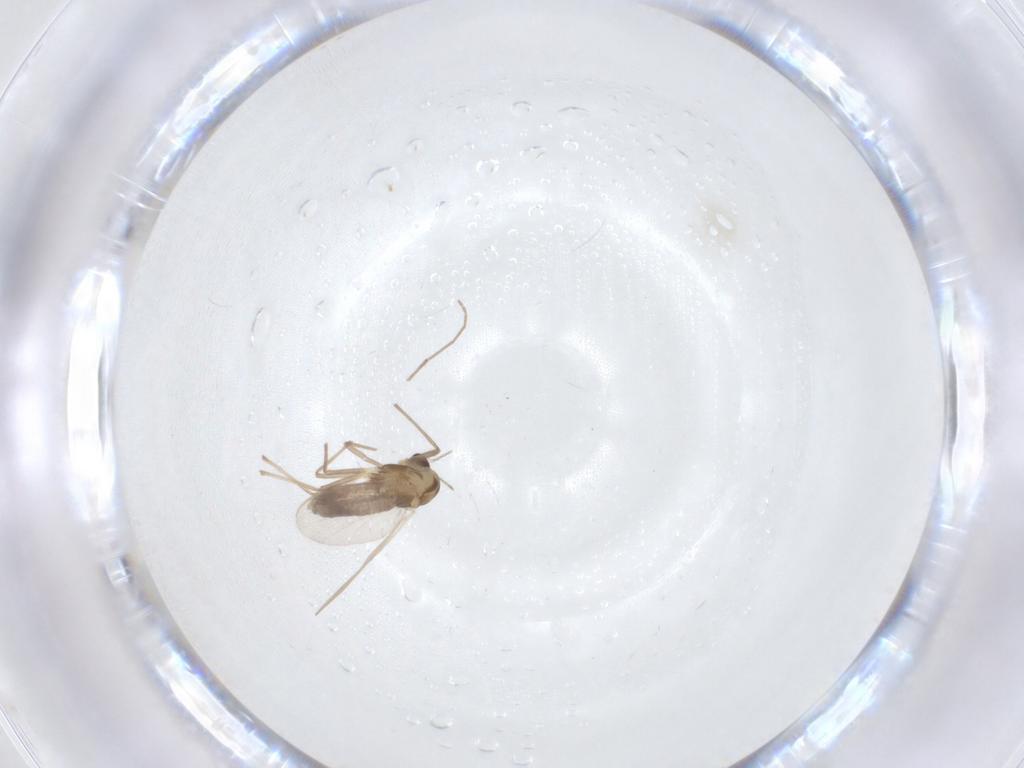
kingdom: Animalia
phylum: Arthropoda
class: Insecta
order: Diptera
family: Chironomidae
